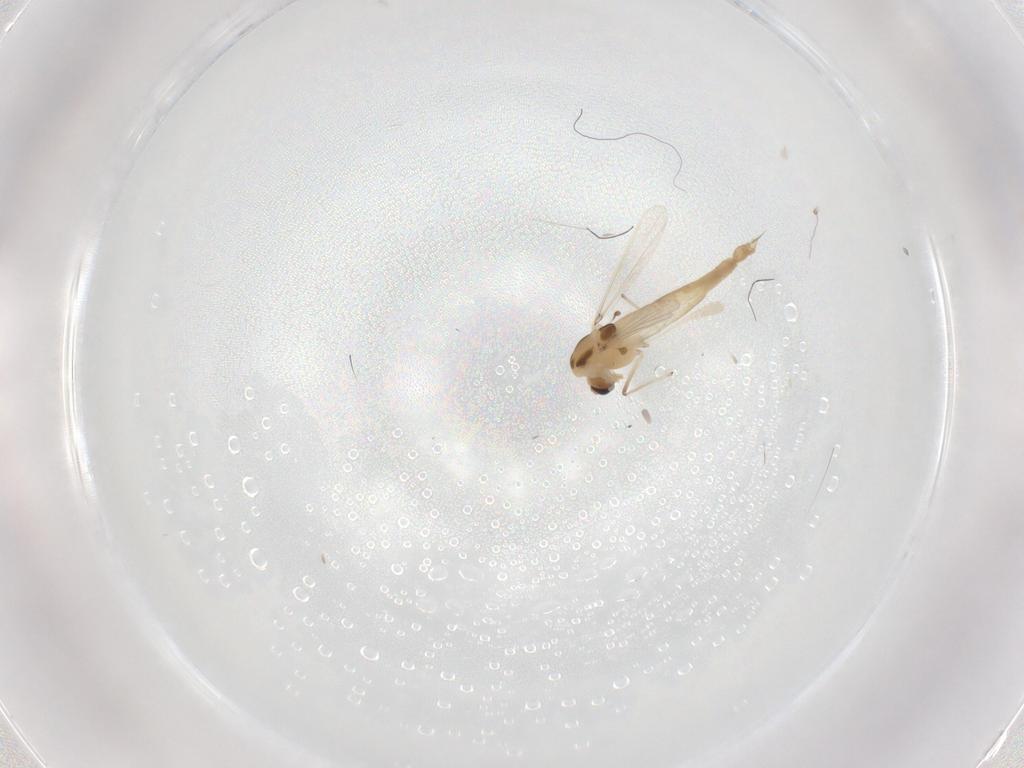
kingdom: Animalia
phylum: Arthropoda
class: Insecta
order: Diptera
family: Chironomidae
